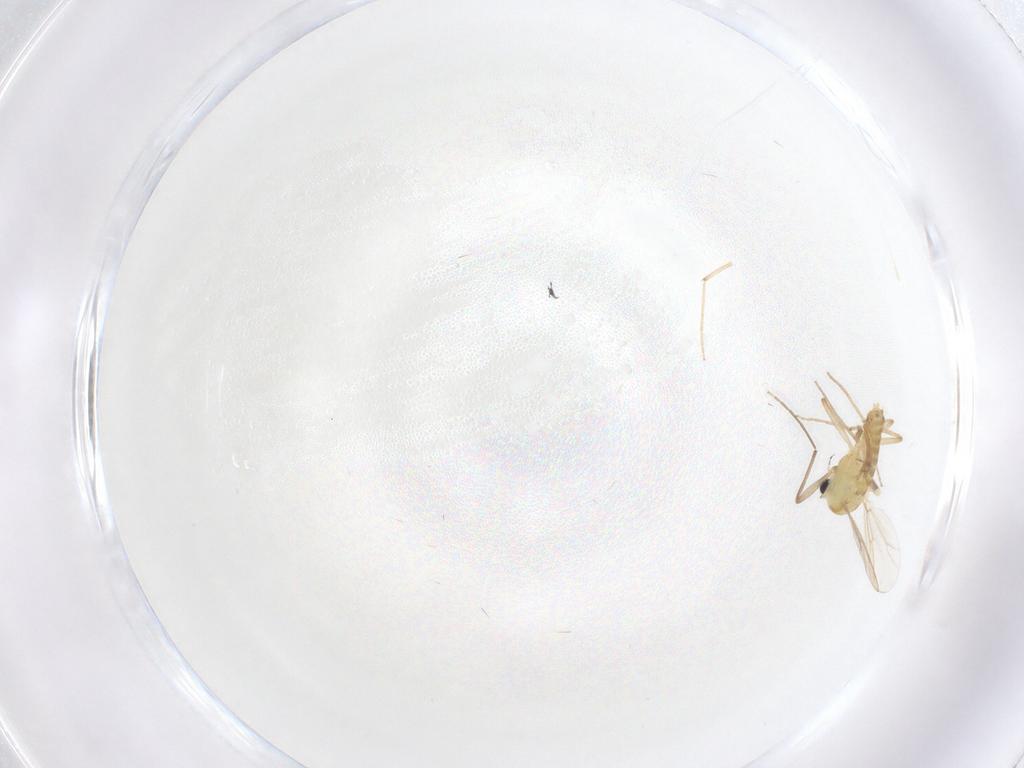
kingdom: Animalia
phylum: Arthropoda
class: Insecta
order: Diptera
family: Chironomidae
